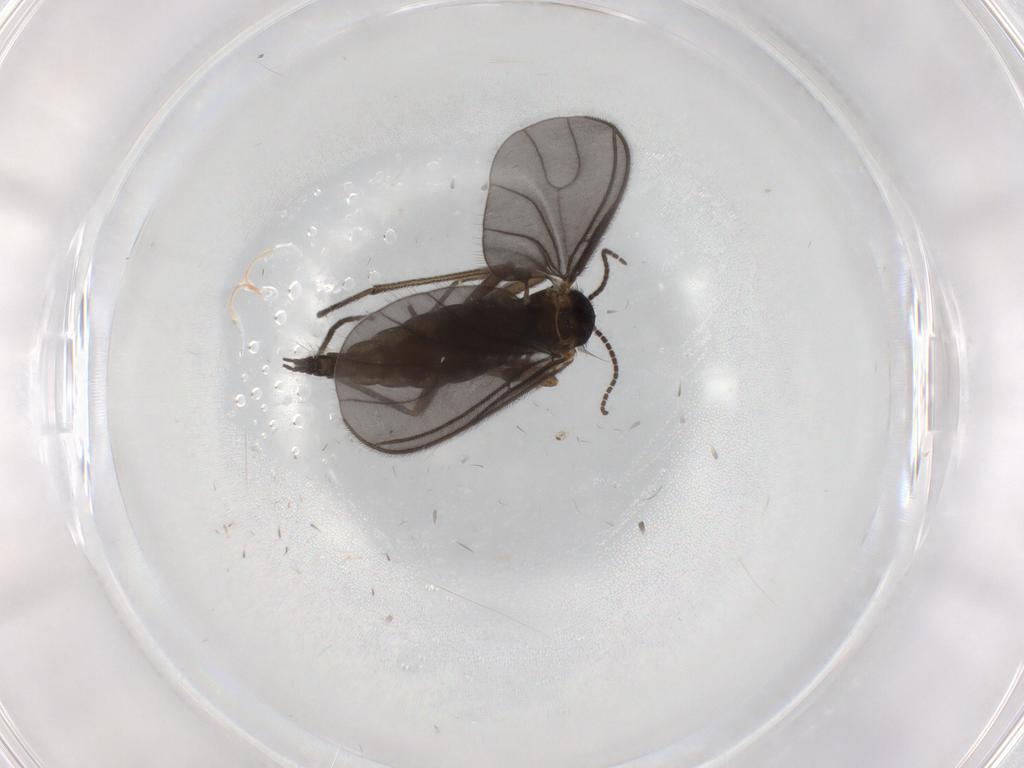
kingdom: Animalia
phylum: Arthropoda
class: Insecta
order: Diptera
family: Sciaridae
